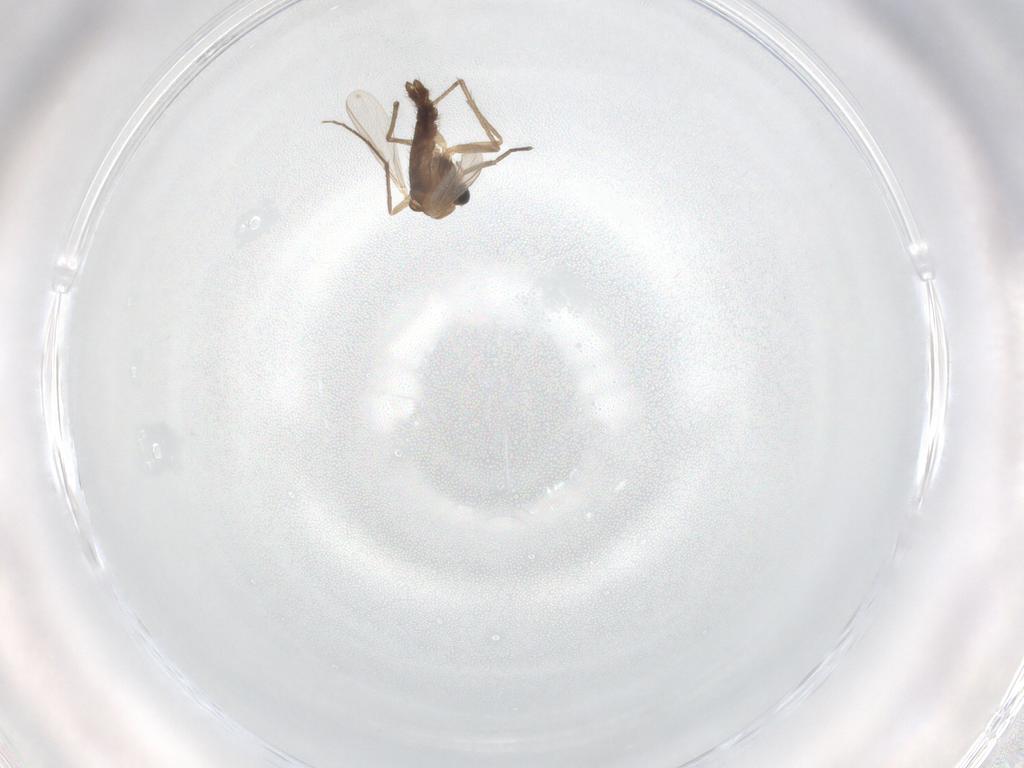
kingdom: Animalia
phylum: Arthropoda
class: Insecta
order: Diptera
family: Chironomidae
